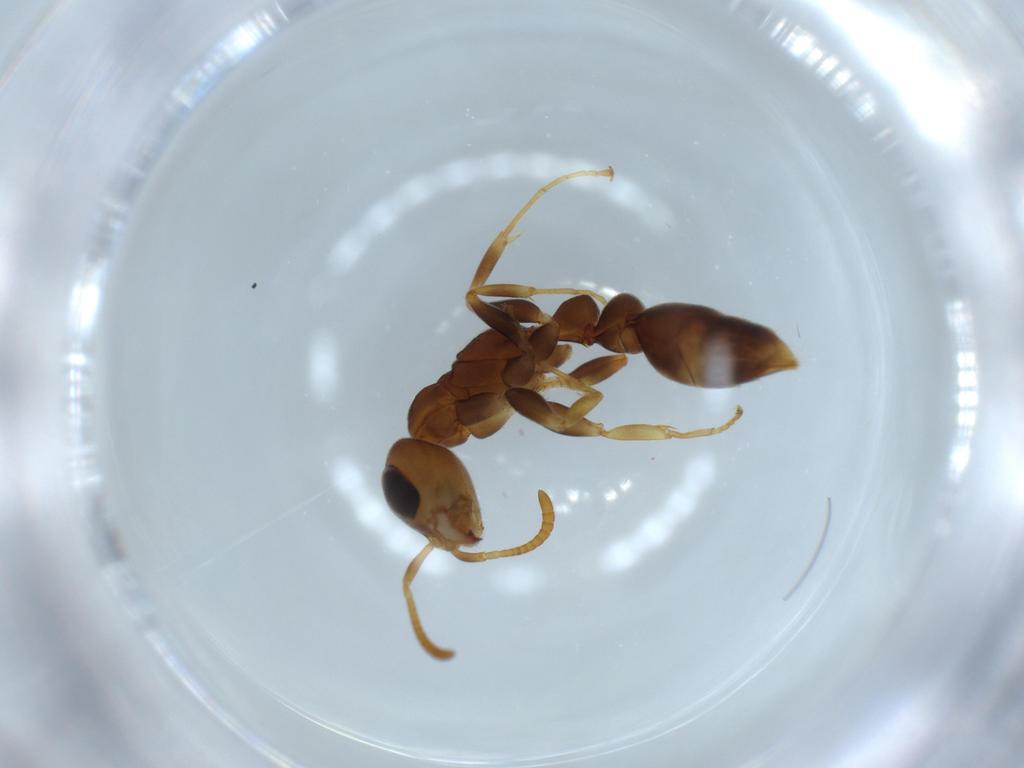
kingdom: Animalia
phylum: Arthropoda
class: Insecta
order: Hymenoptera
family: Formicidae
